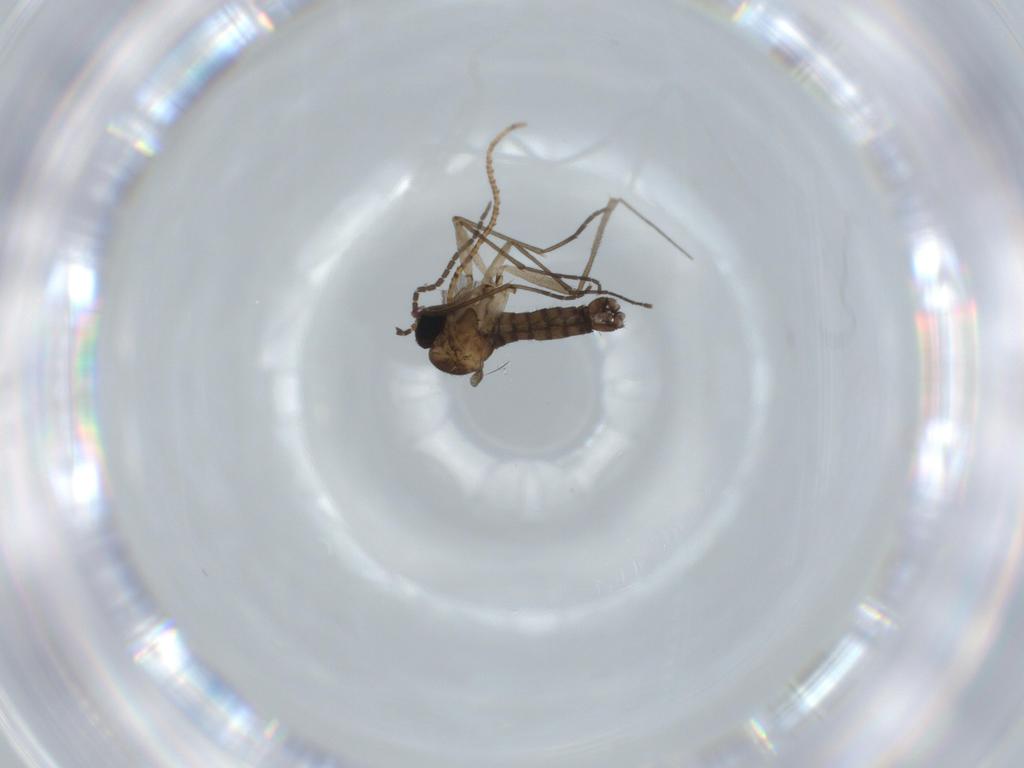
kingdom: Animalia
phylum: Arthropoda
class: Insecta
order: Diptera
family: Sciaridae
